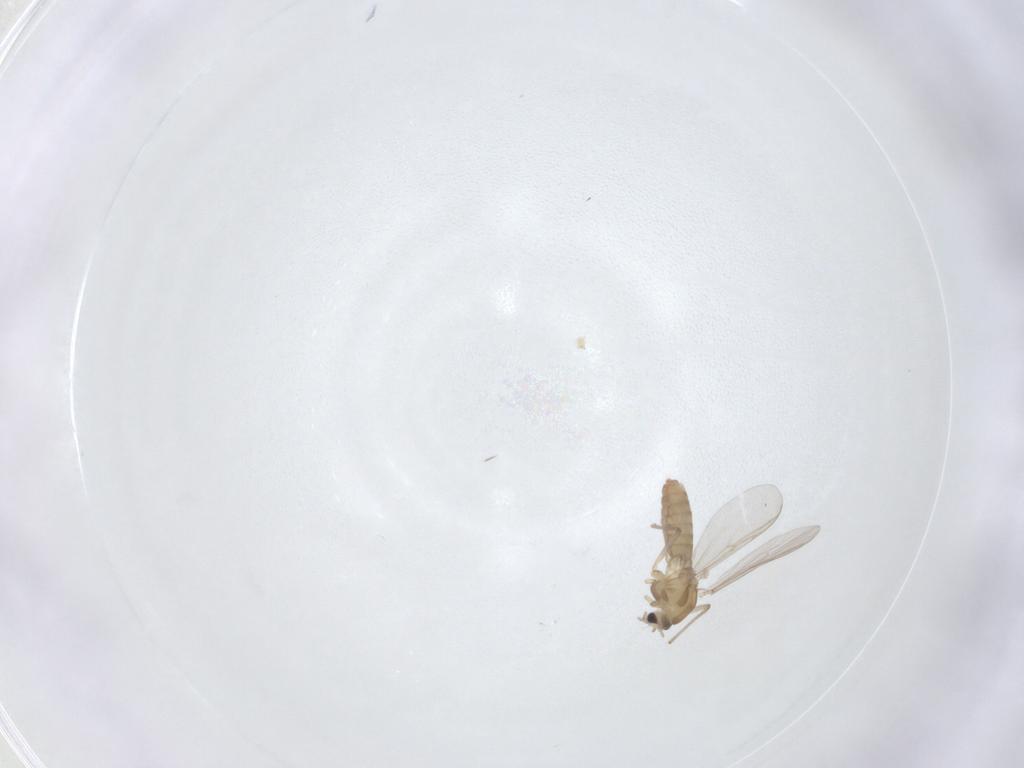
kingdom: Animalia
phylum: Arthropoda
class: Insecta
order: Diptera
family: Chironomidae
